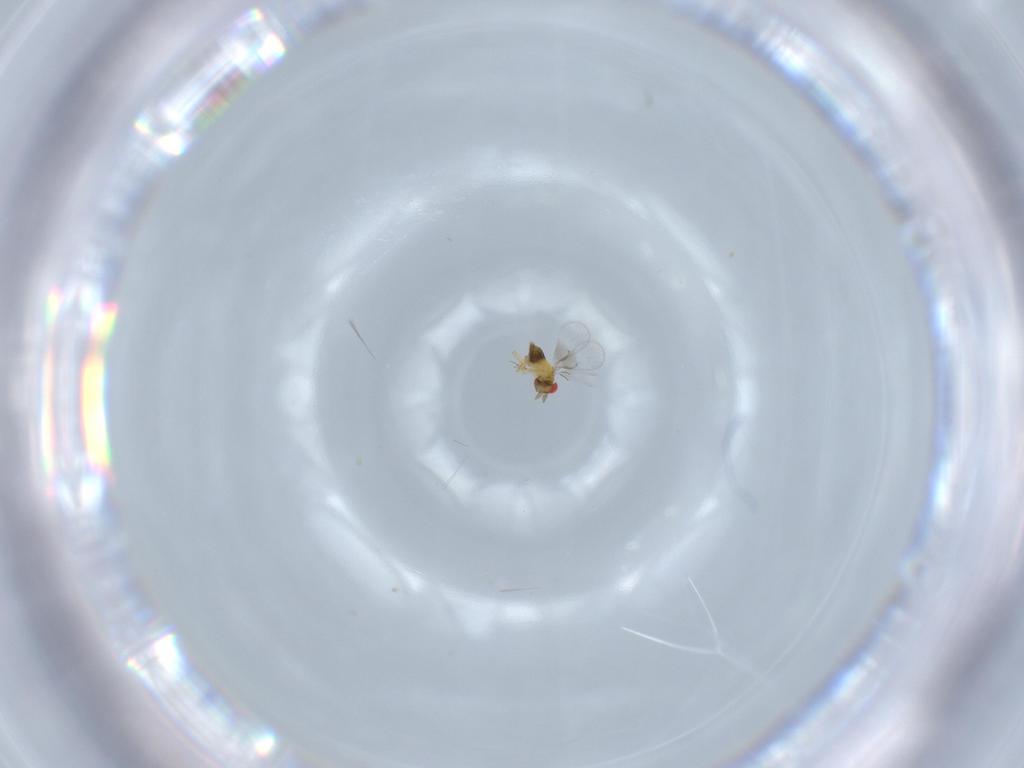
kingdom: Animalia
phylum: Arthropoda
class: Insecta
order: Hymenoptera
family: Trichogrammatidae
